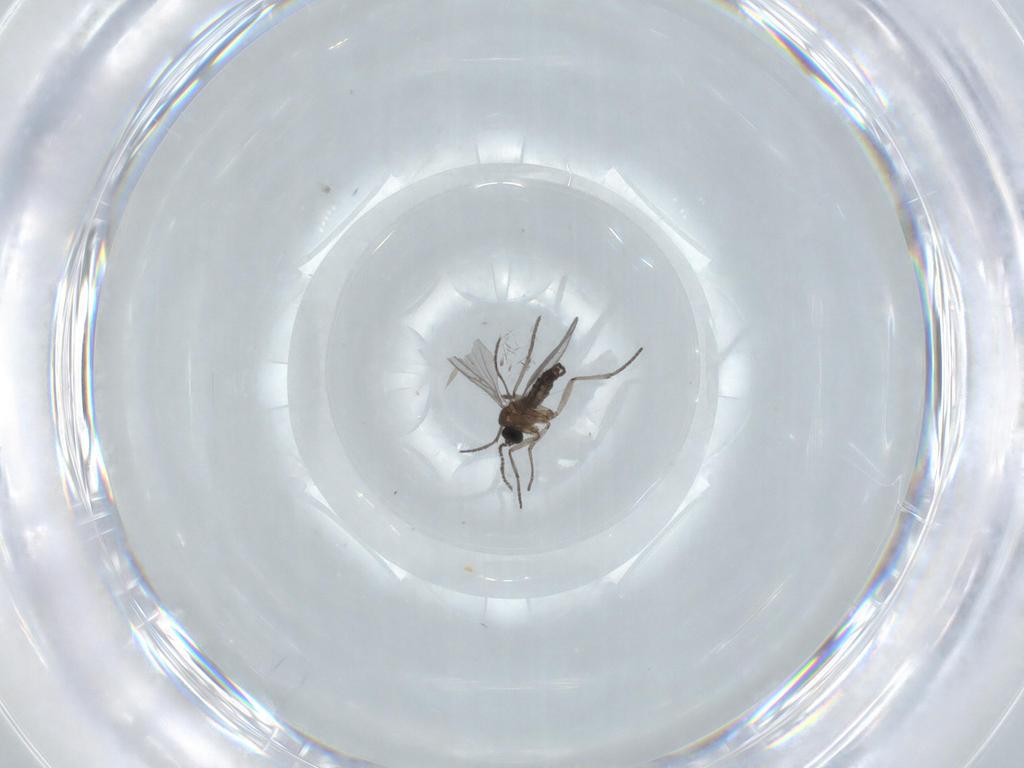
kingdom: Animalia
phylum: Arthropoda
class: Insecta
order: Diptera
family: Cecidomyiidae
